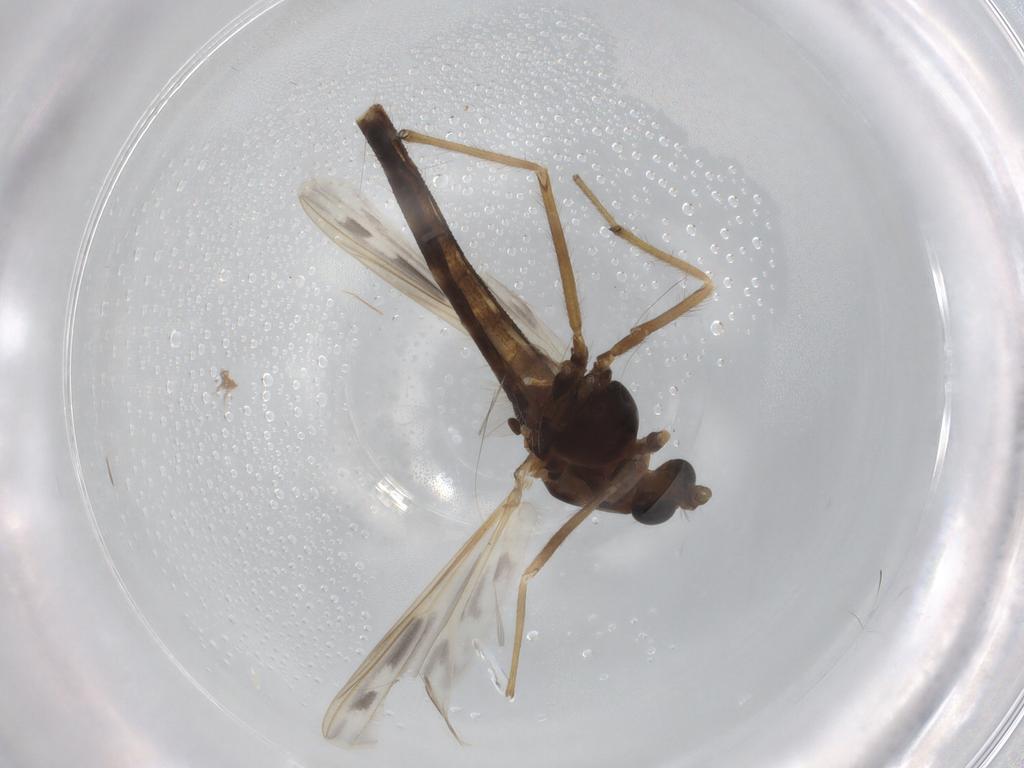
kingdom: Animalia
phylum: Arthropoda
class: Insecta
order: Diptera
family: Phoridae
